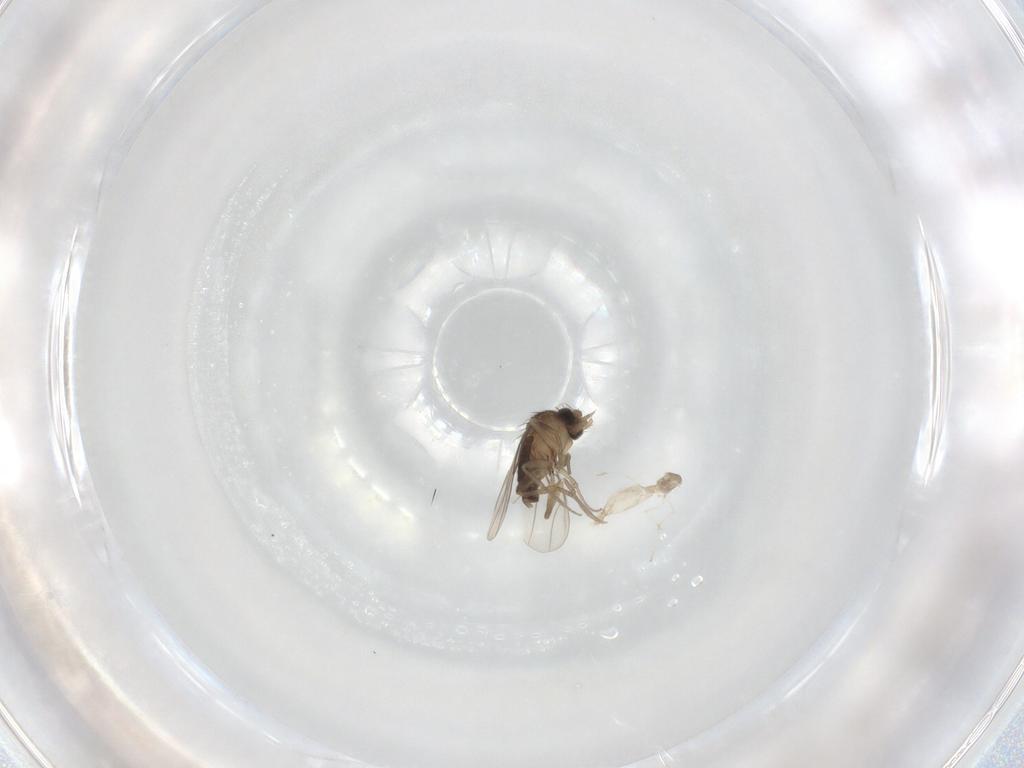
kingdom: Animalia
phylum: Arthropoda
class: Insecta
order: Diptera
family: Phoridae
